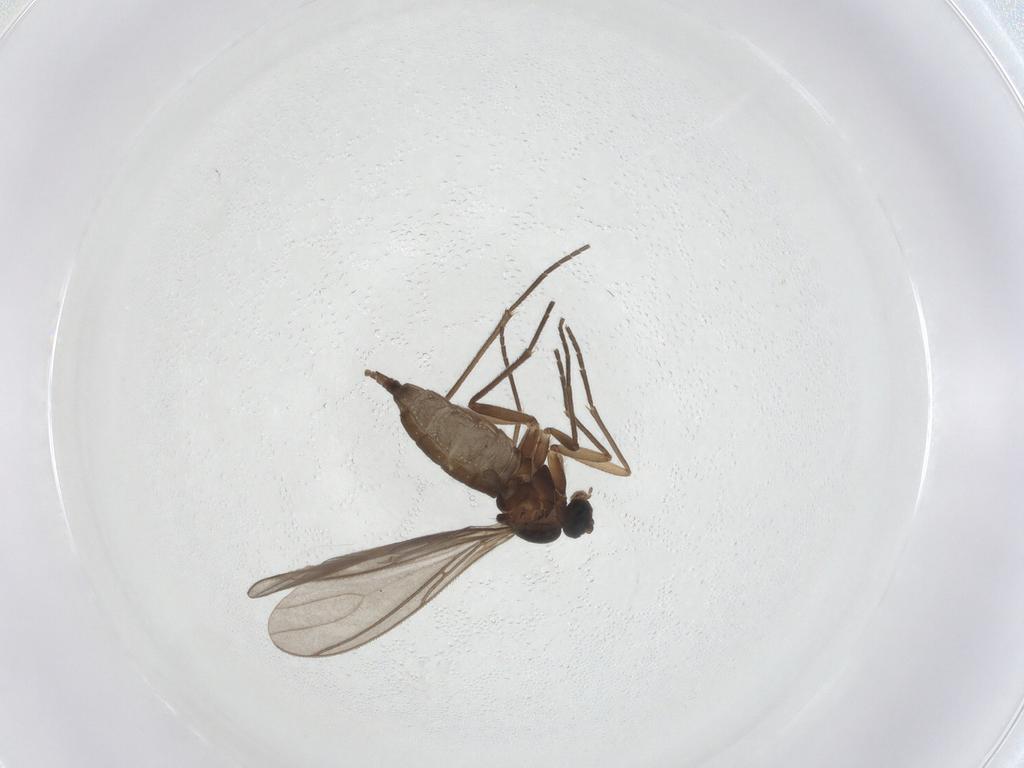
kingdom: Animalia
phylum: Arthropoda
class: Insecta
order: Diptera
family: Sciaridae
